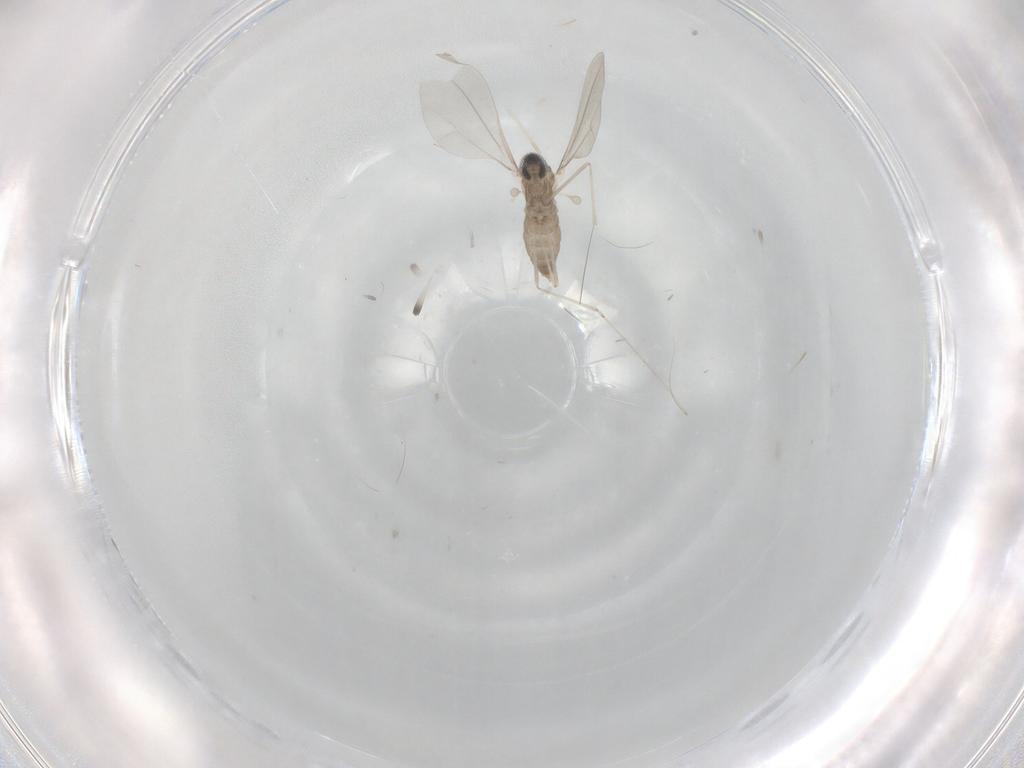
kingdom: Animalia
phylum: Arthropoda
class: Insecta
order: Diptera
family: Cecidomyiidae
